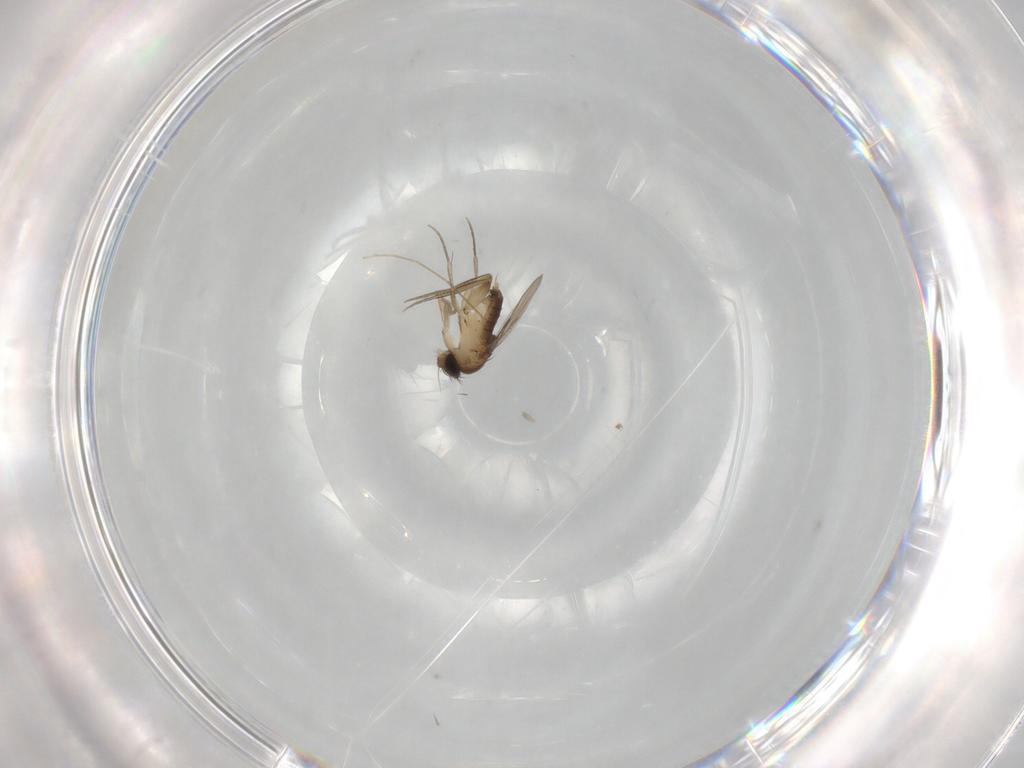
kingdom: Animalia
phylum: Arthropoda
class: Insecta
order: Diptera
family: Phoridae
